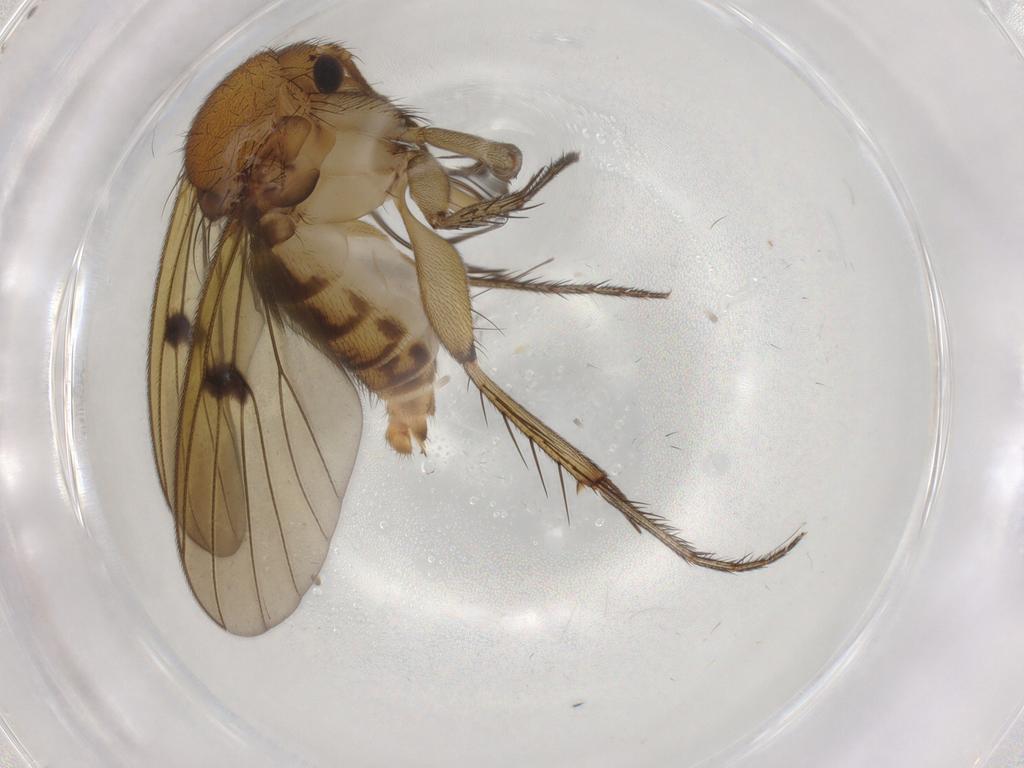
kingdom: Animalia
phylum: Arthropoda
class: Insecta
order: Diptera
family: Mycetophilidae
